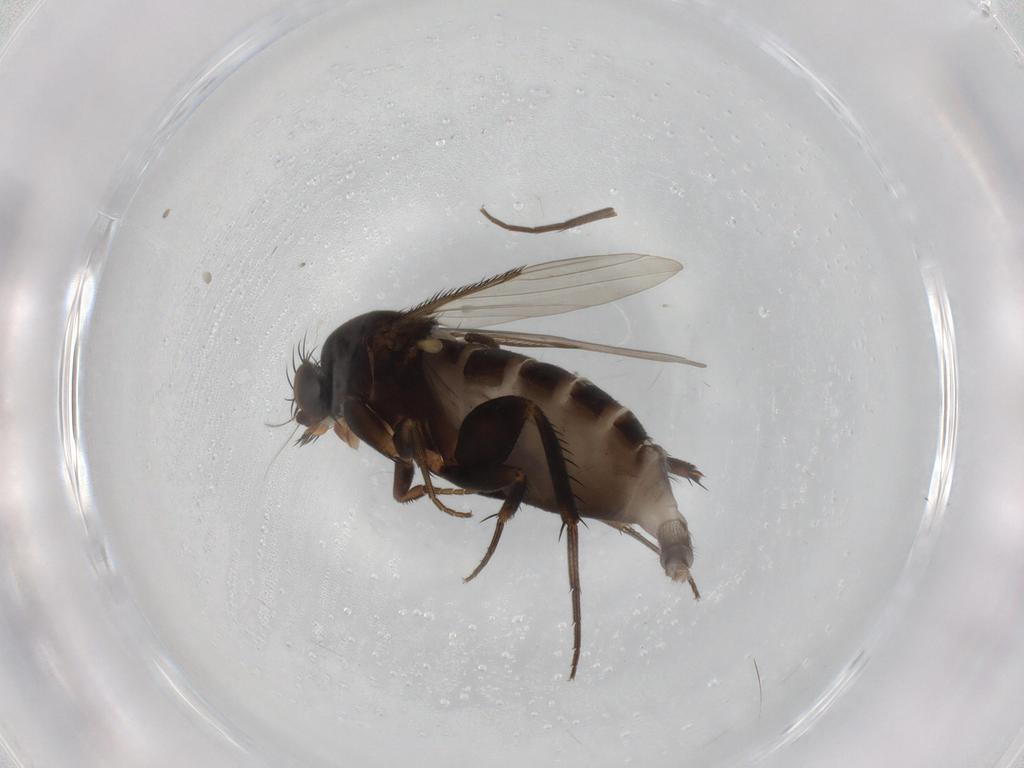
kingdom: Animalia
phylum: Arthropoda
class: Insecta
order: Diptera
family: Phoridae
